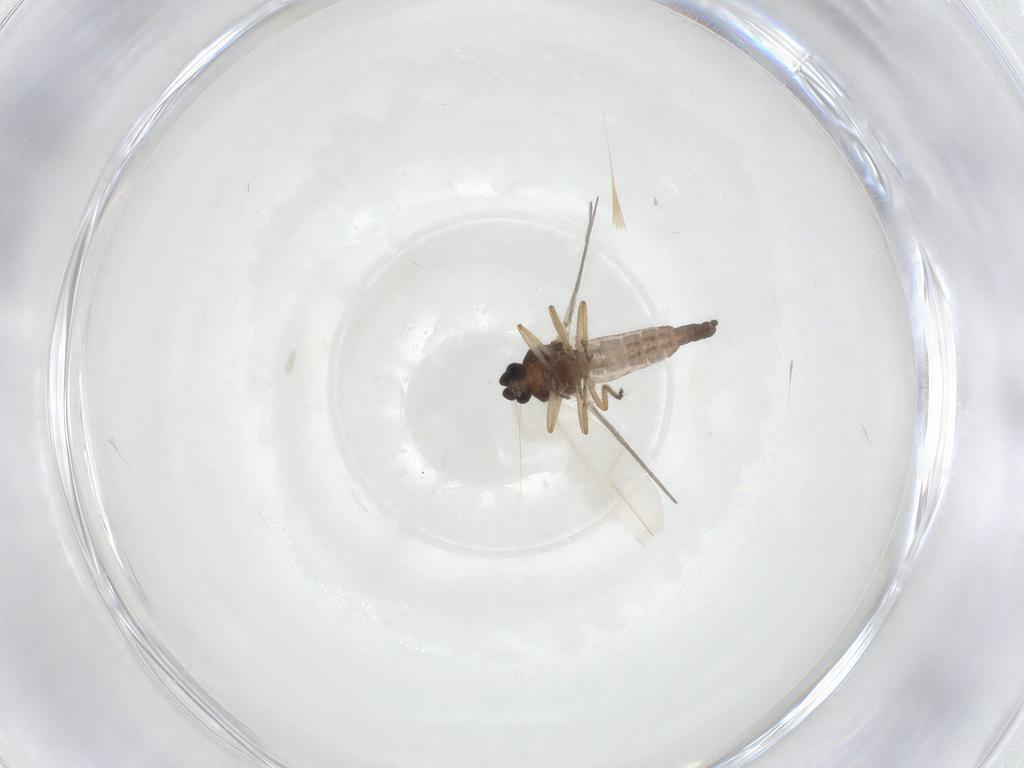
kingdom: Animalia
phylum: Arthropoda
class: Insecta
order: Diptera
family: Ceratopogonidae
